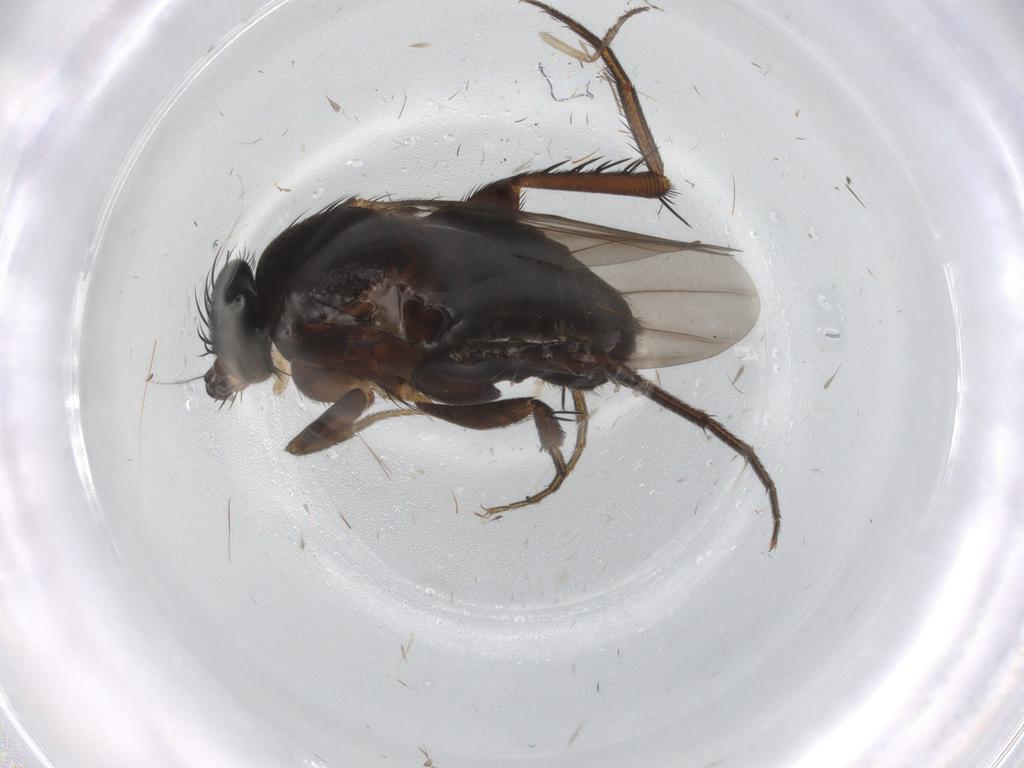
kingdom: Animalia
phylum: Arthropoda
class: Insecta
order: Diptera
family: Phoridae
